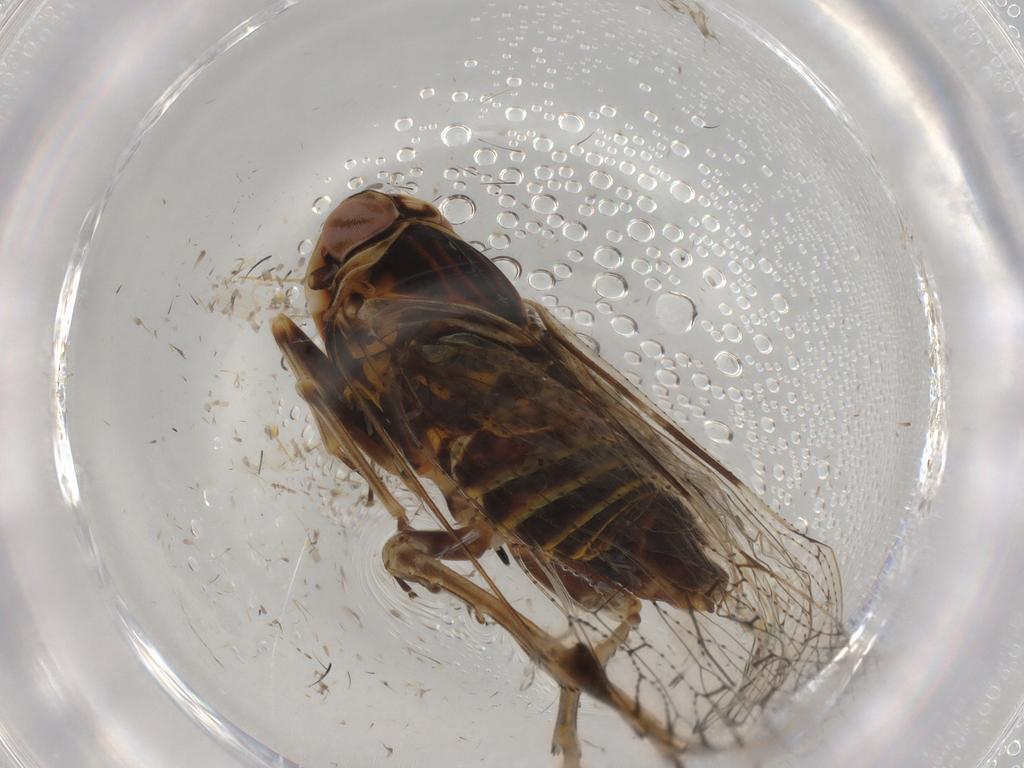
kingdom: Animalia
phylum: Arthropoda
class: Insecta
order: Hemiptera
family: Cixiidae
